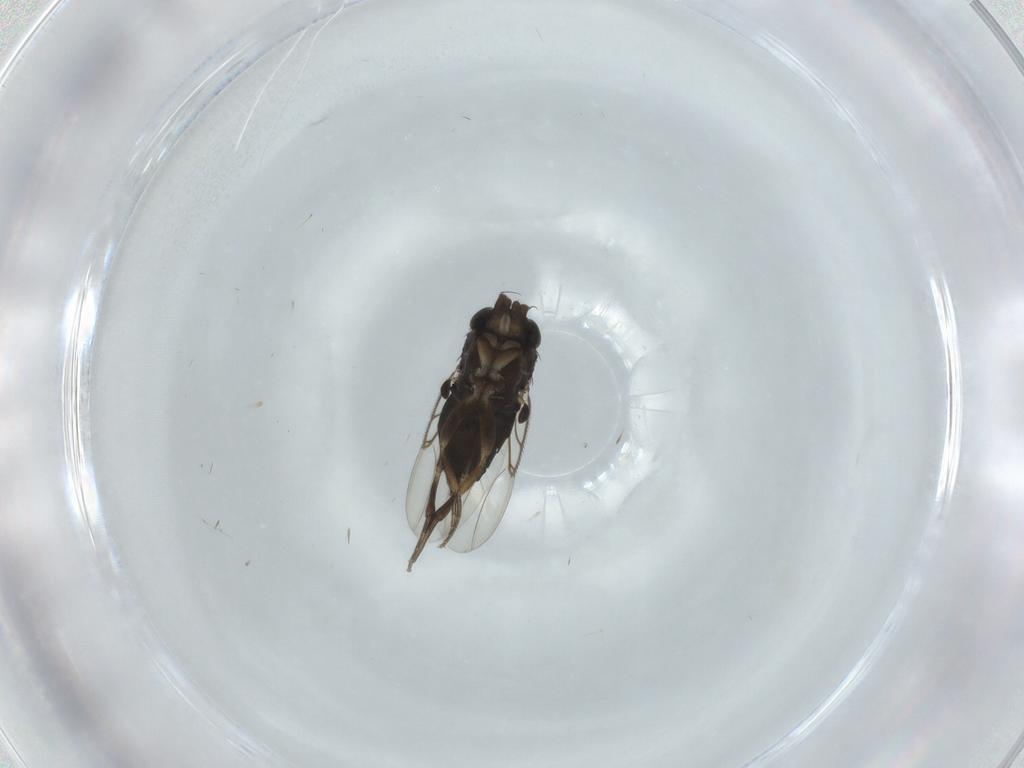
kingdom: Animalia
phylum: Arthropoda
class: Insecta
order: Diptera
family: Phoridae
